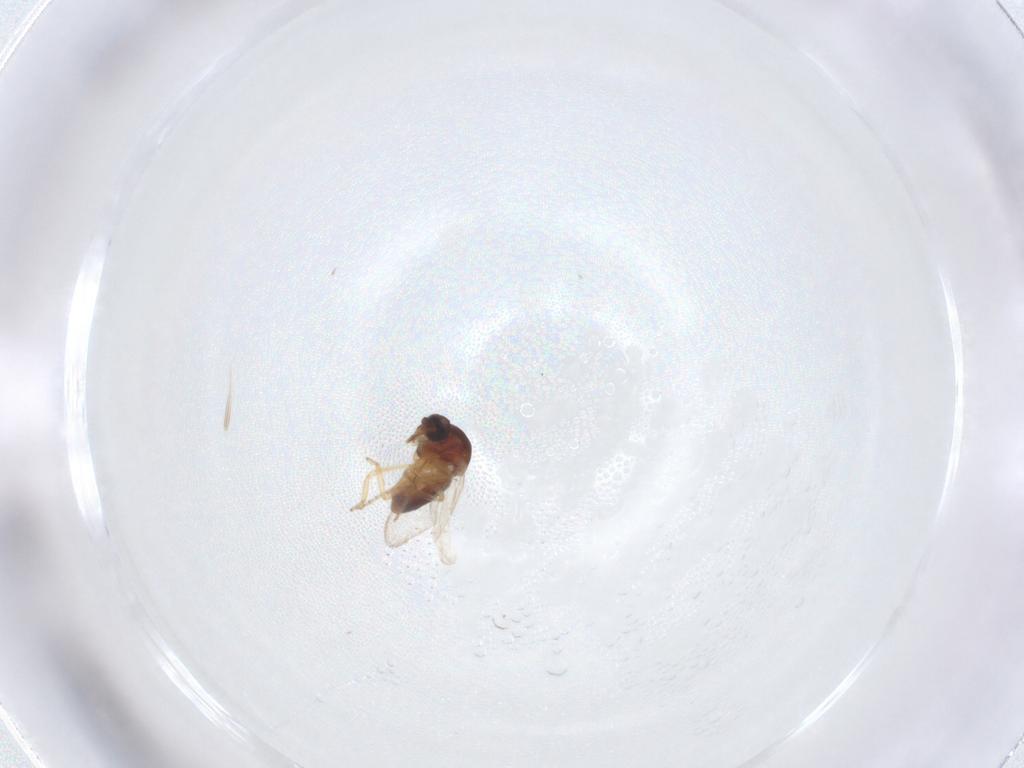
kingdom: Animalia
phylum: Arthropoda
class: Insecta
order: Diptera
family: Ceratopogonidae
